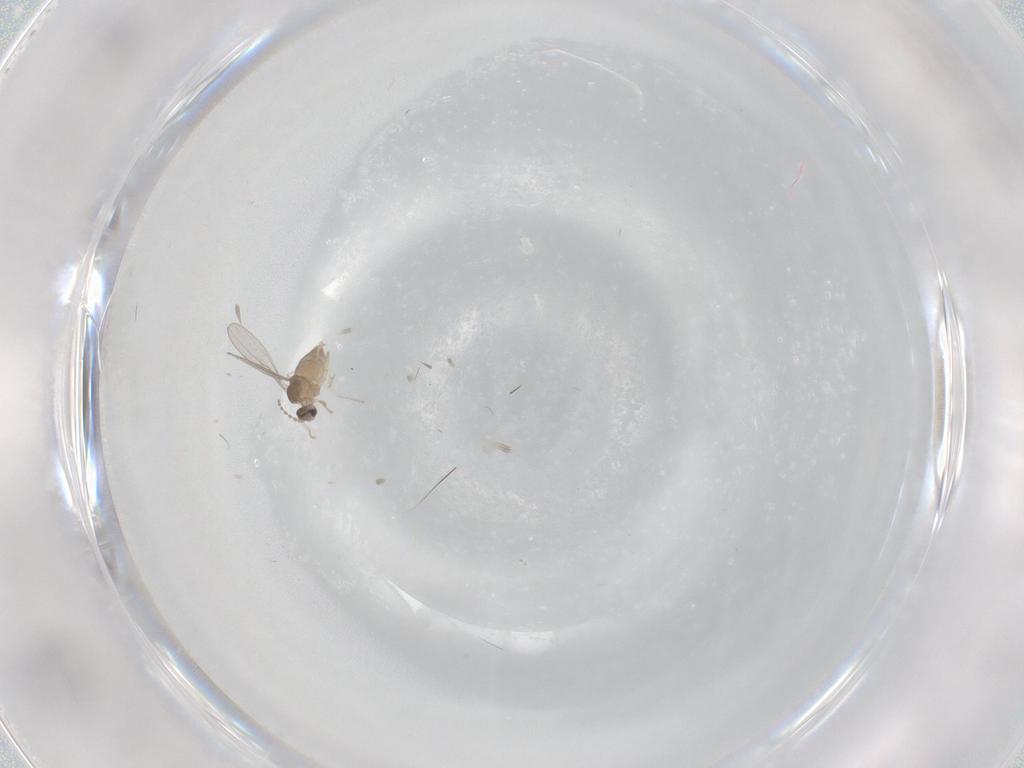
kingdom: Animalia
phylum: Arthropoda
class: Insecta
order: Diptera
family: Cecidomyiidae
